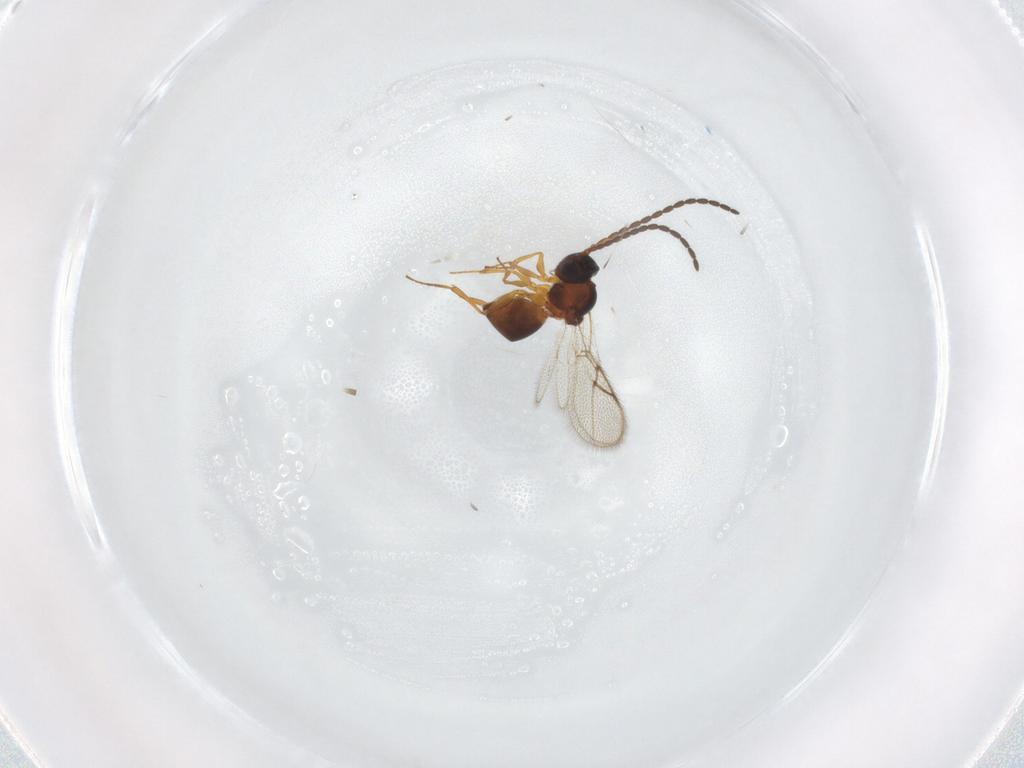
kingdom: Animalia
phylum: Arthropoda
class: Insecta
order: Hymenoptera
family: Figitidae
